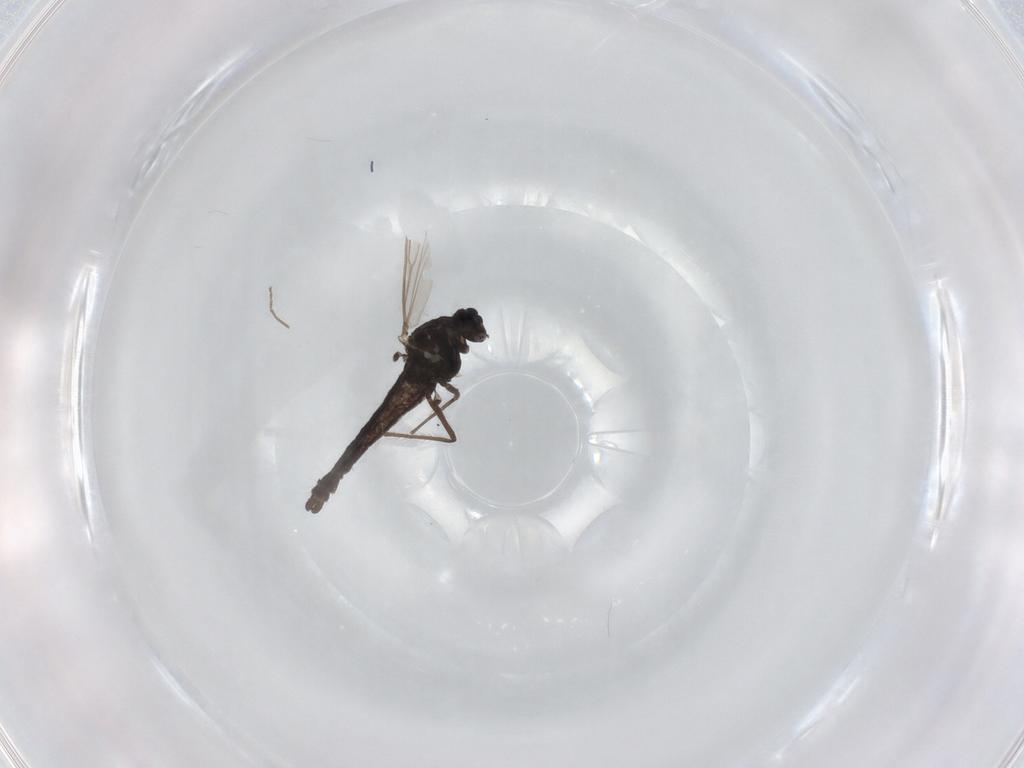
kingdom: Animalia
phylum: Arthropoda
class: Insecta
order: Diptera
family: Chironomidae
